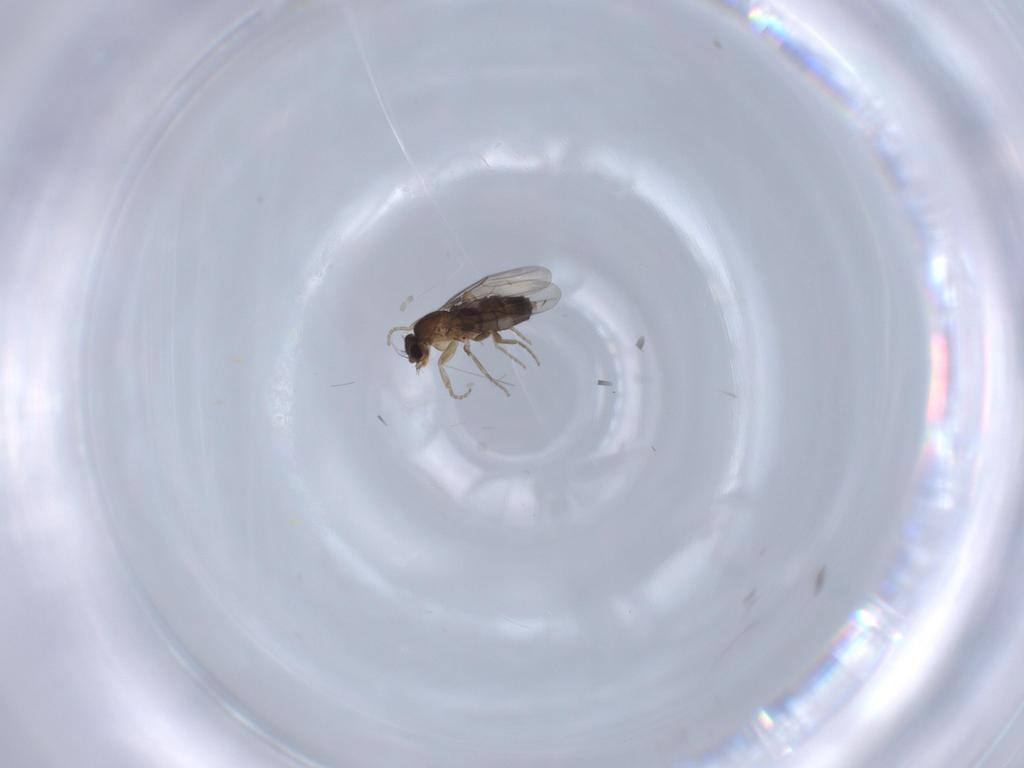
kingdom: Animalia
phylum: Arthropoda
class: Insecta
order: Diptera
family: Phoridae
